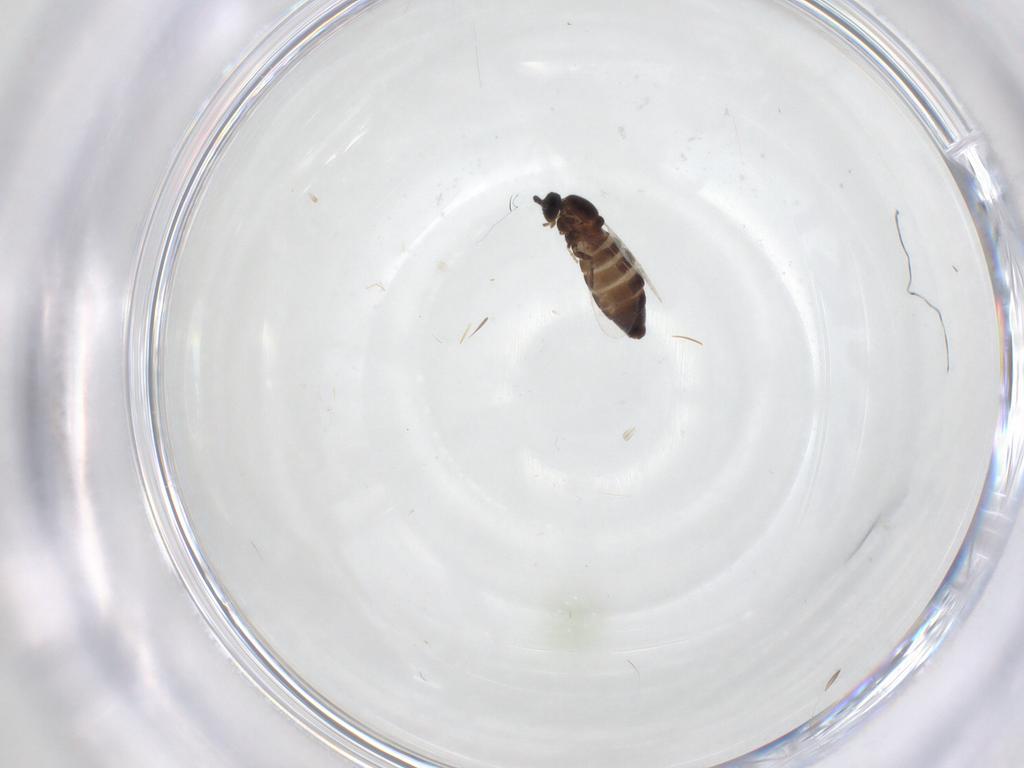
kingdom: Animalia
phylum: Arthropoda
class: Insecta
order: Diptera
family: Scatopsidae
